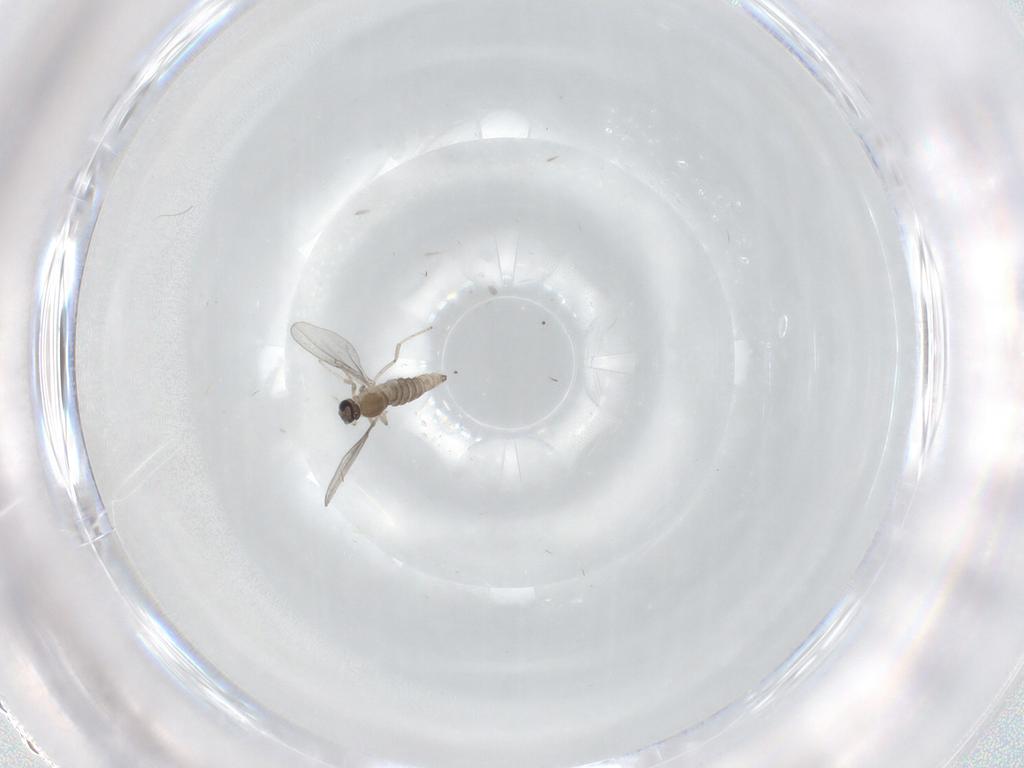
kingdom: Animalia
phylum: Arthropoda
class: Insecta
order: Diptera
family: Cecidomyiidae
